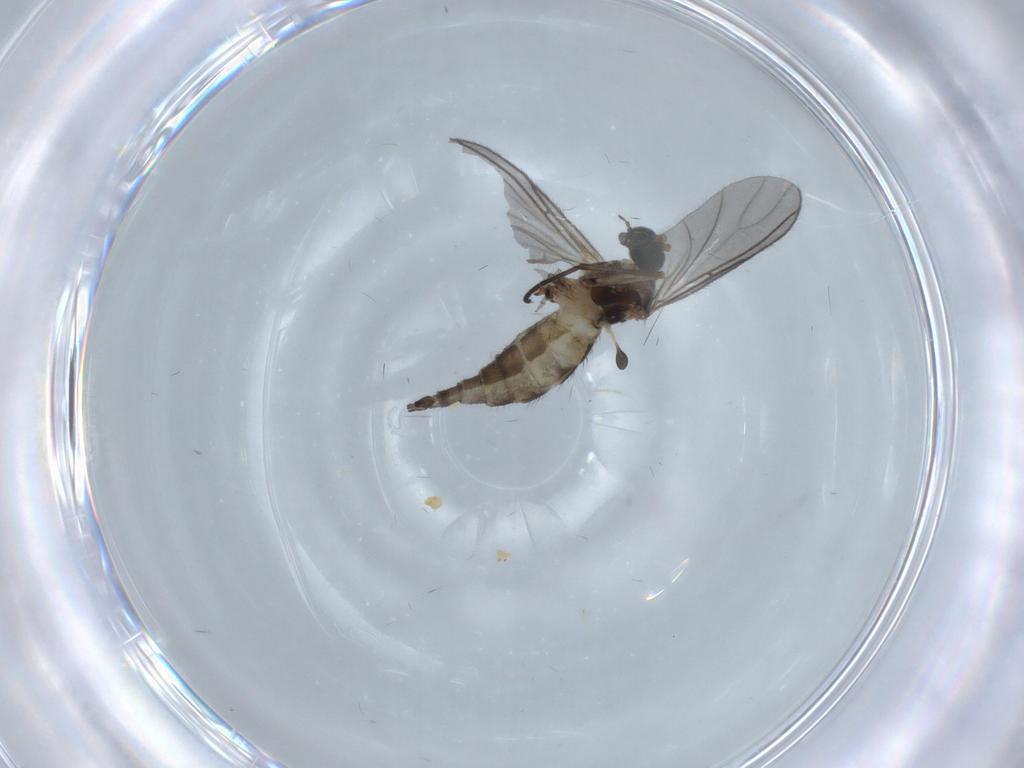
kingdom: Animalia
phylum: Arthropoda
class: Insecta
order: Diptera
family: Sciaridae
